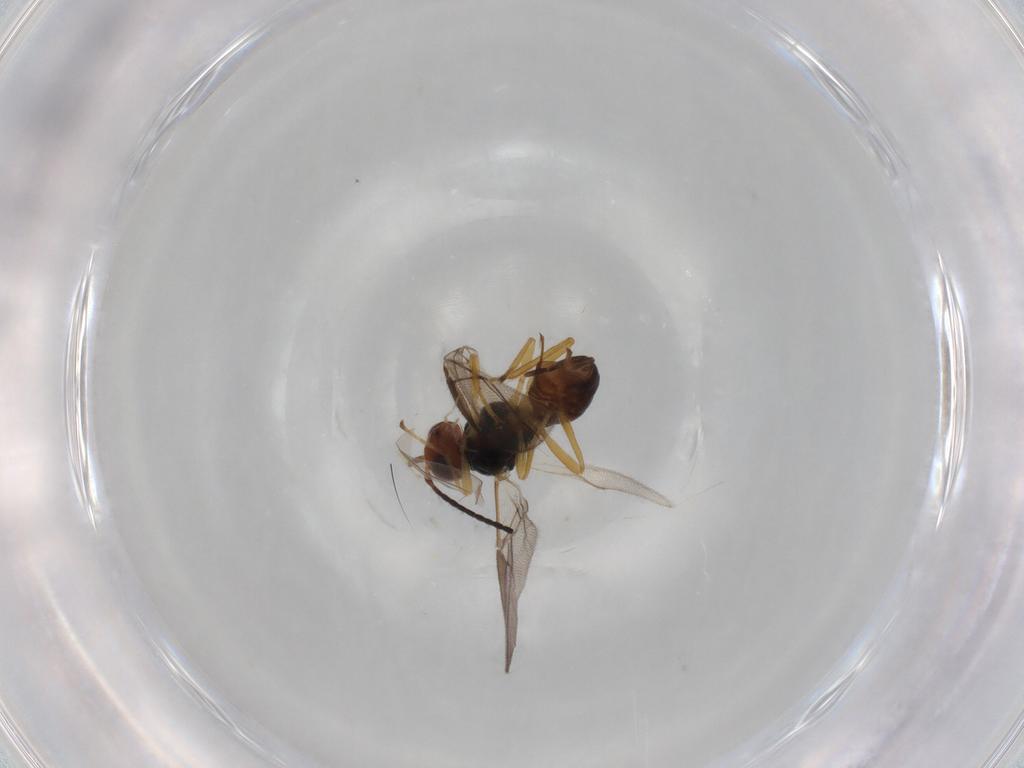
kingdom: Animalia
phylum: Arthropoda
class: Insecta
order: Hymenoptera
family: Braconidae
